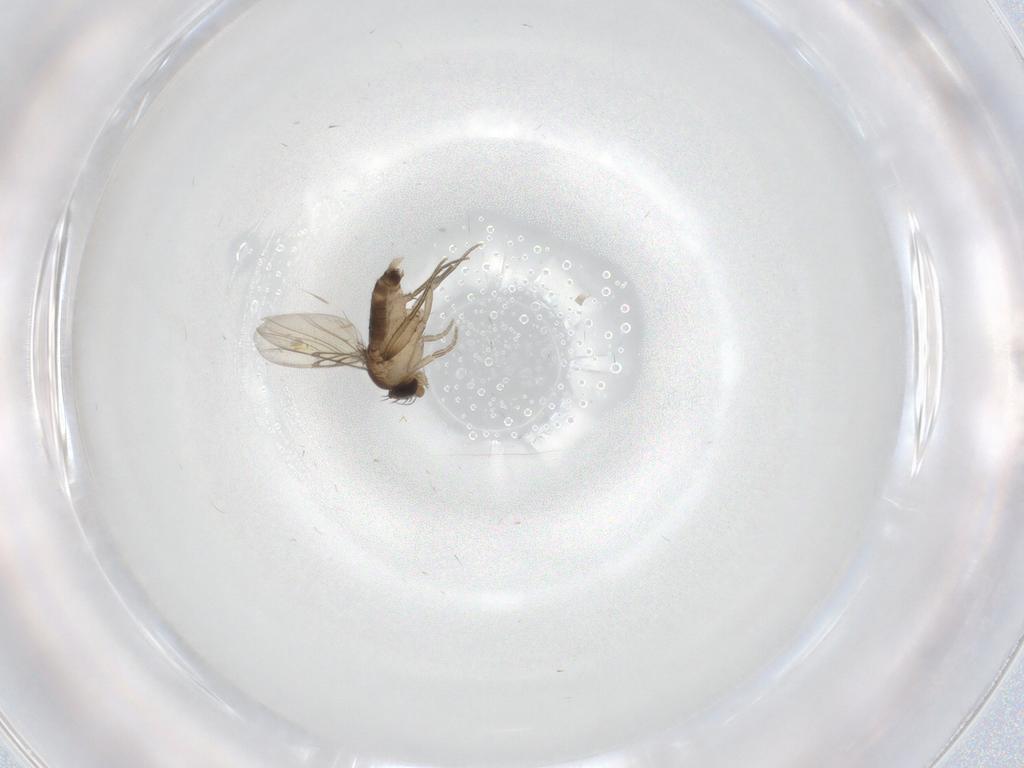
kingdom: Animalia
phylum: Arthropoda
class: Insecta
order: Diptera
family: Phoridae
